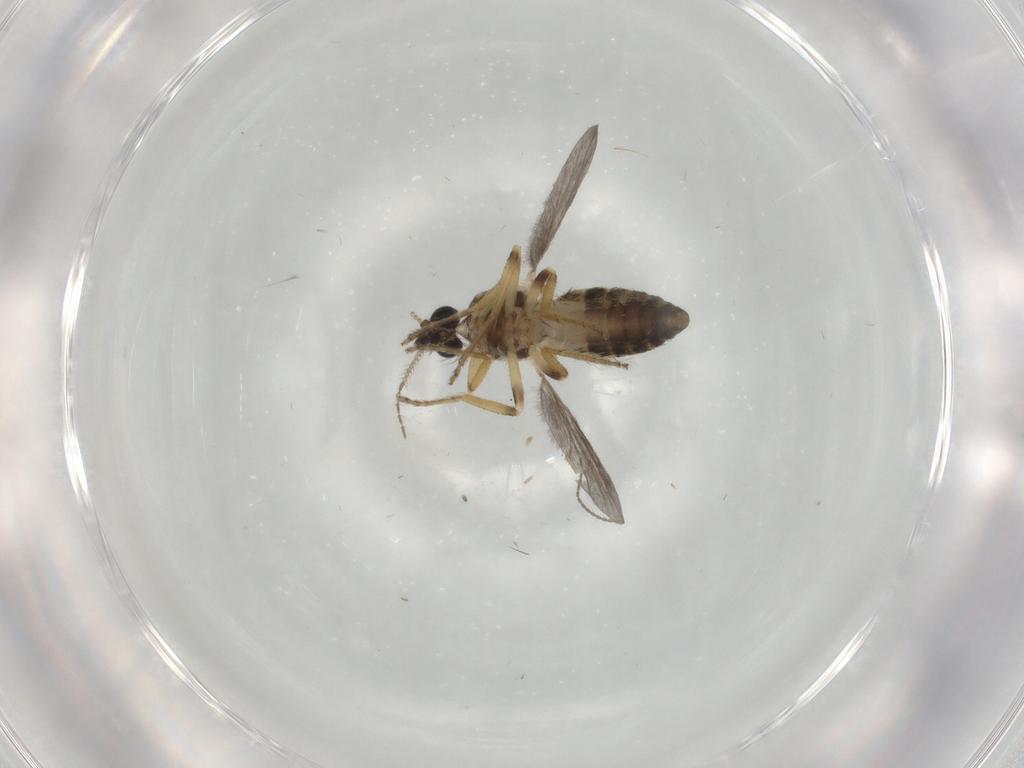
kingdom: Animalia
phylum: Arthropoda
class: Insecta
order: Diptera
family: Ceratopogonidae
